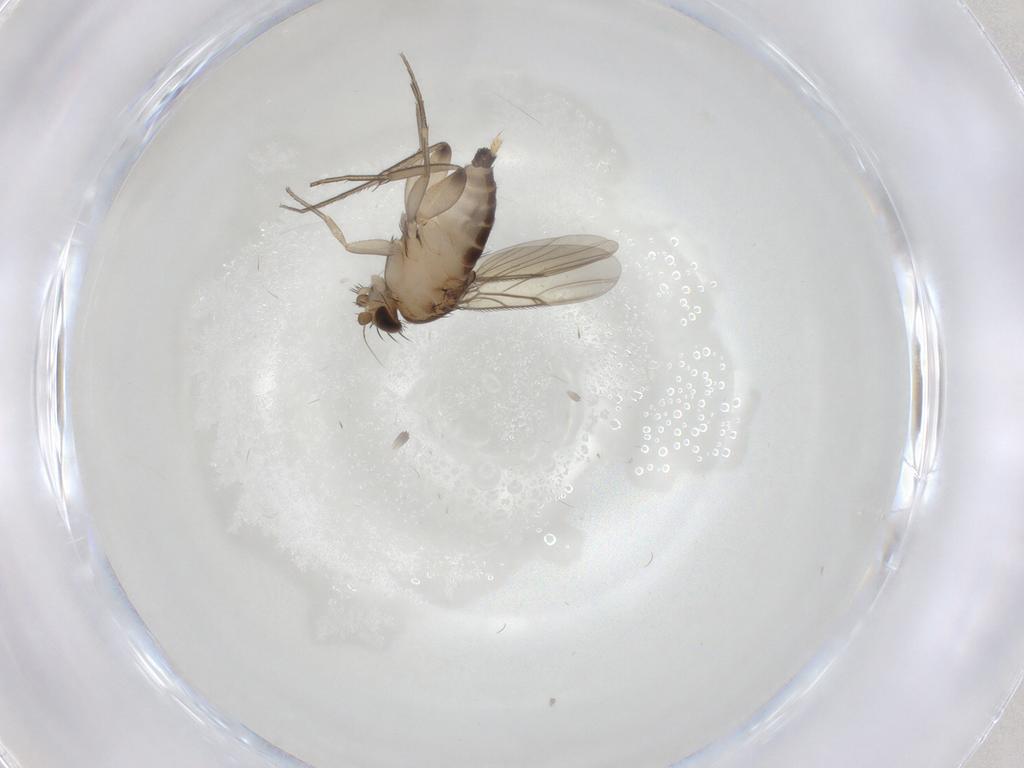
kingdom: Animalia
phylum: Arthropoda
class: Insecta
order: Diptera
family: Phoridae
